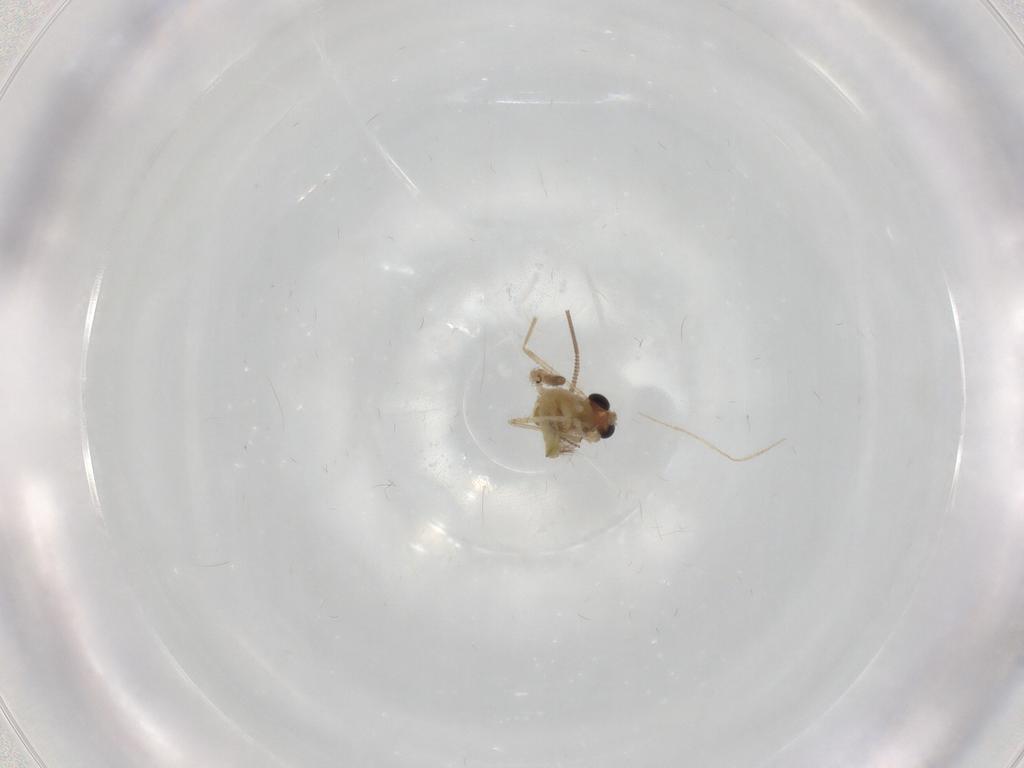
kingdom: Animalia
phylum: Arthropoda
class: Insecta
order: Diptera
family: Chironomidae
